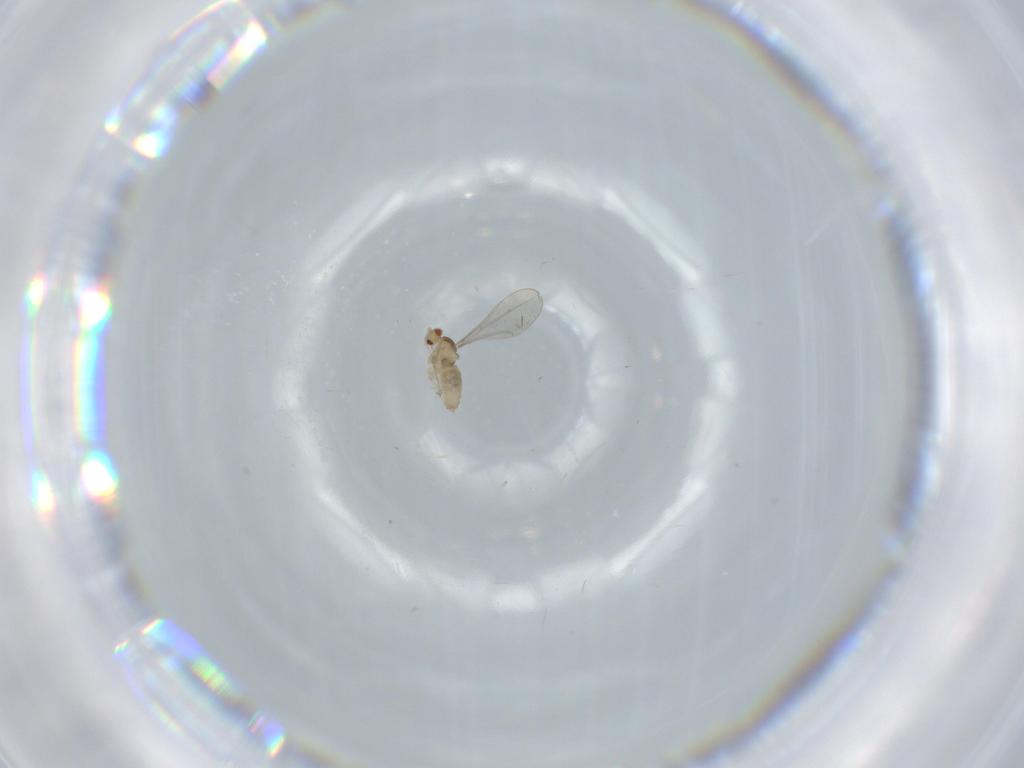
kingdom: Animalia
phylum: Arthropoda
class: Insecta
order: Diptera
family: Cecidomyiidae
